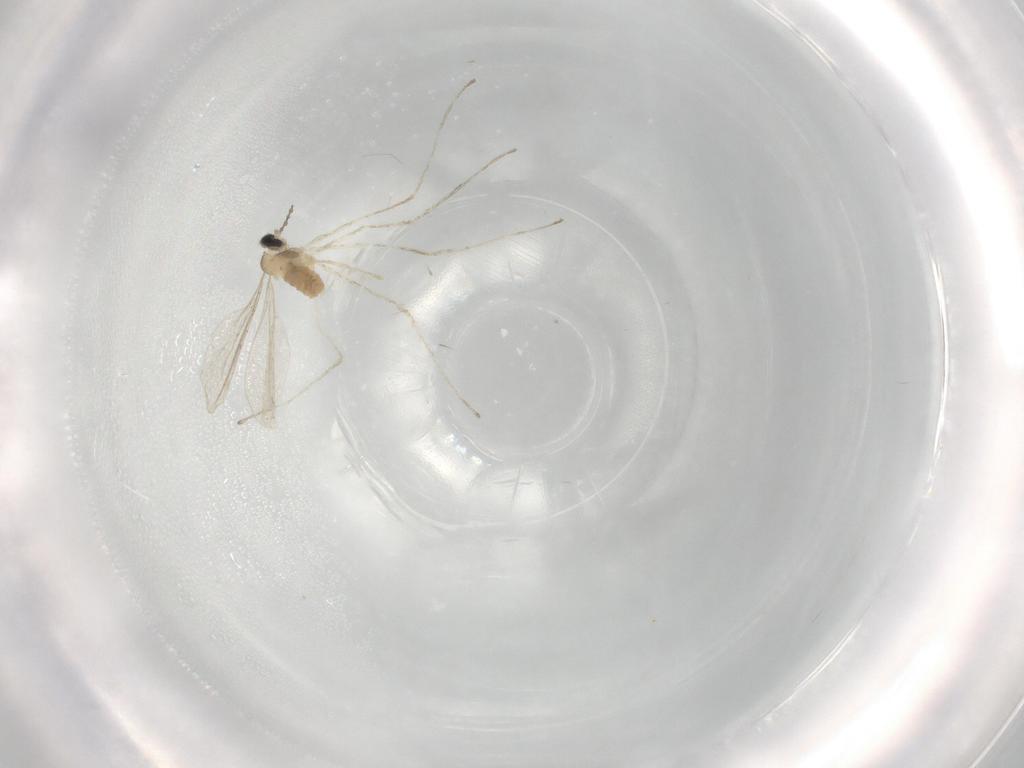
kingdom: Animalia
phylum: Arthropoda
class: Insecta
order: Diptera
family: Cecidomyiidae
